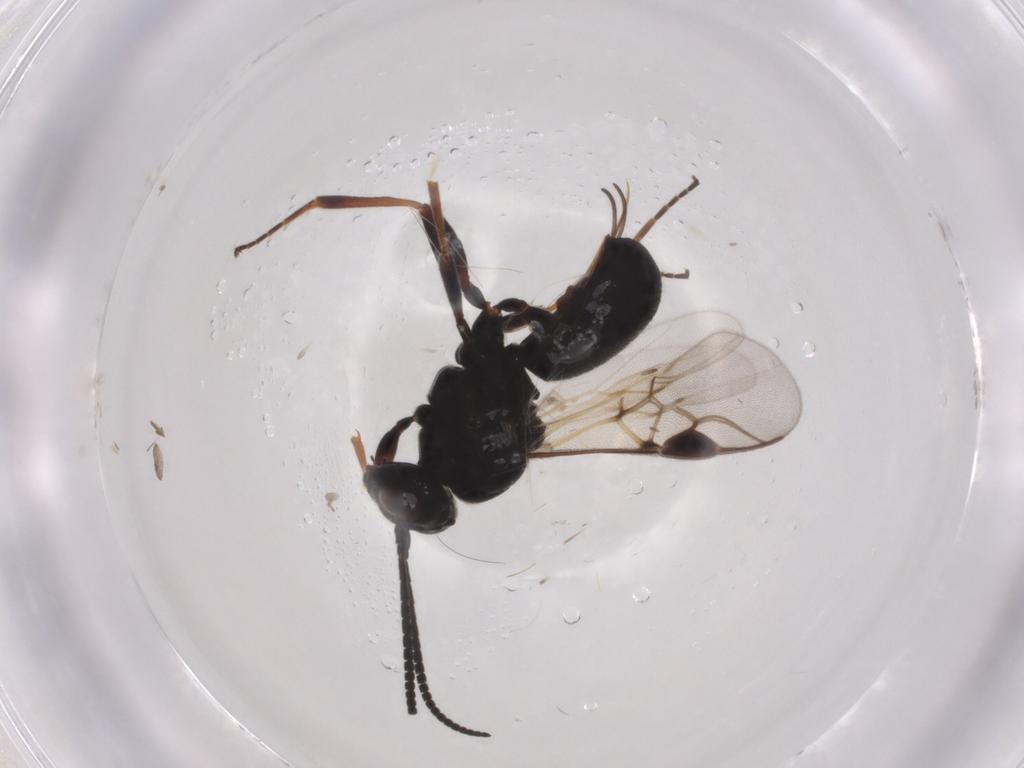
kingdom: Animalia
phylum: Arthropoda
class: Insecta
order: Hymenoptera
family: Braconidae
